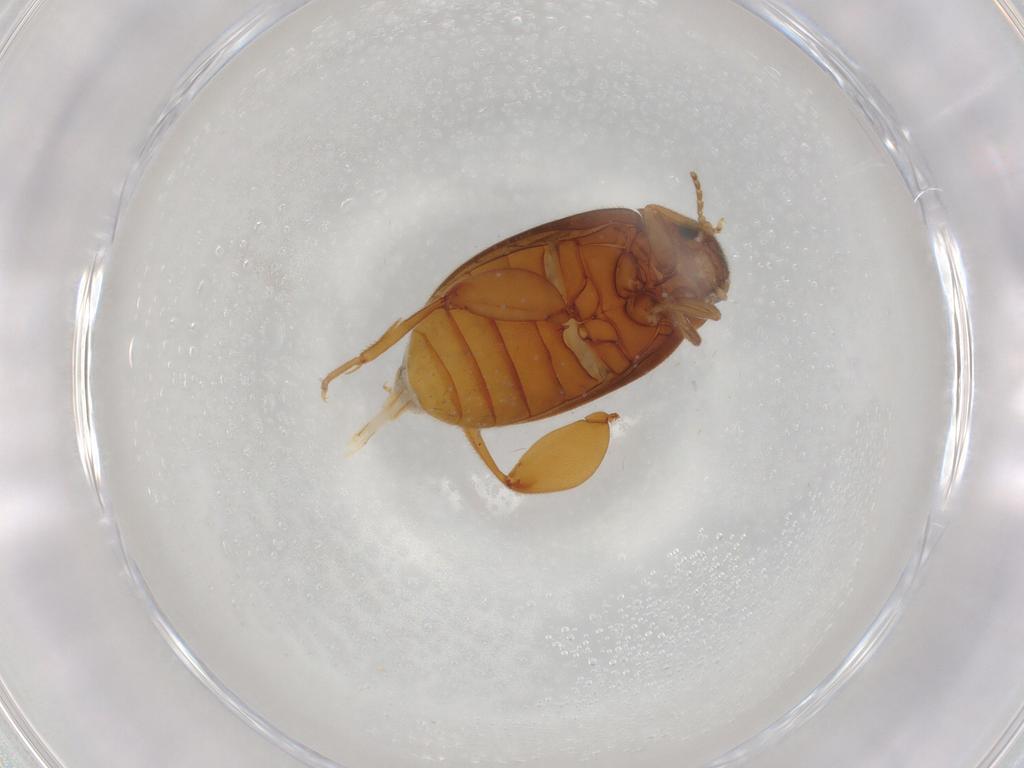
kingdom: Animalia
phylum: Arthropoda
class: Insecta
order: Coleoptera
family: Scirtidae
